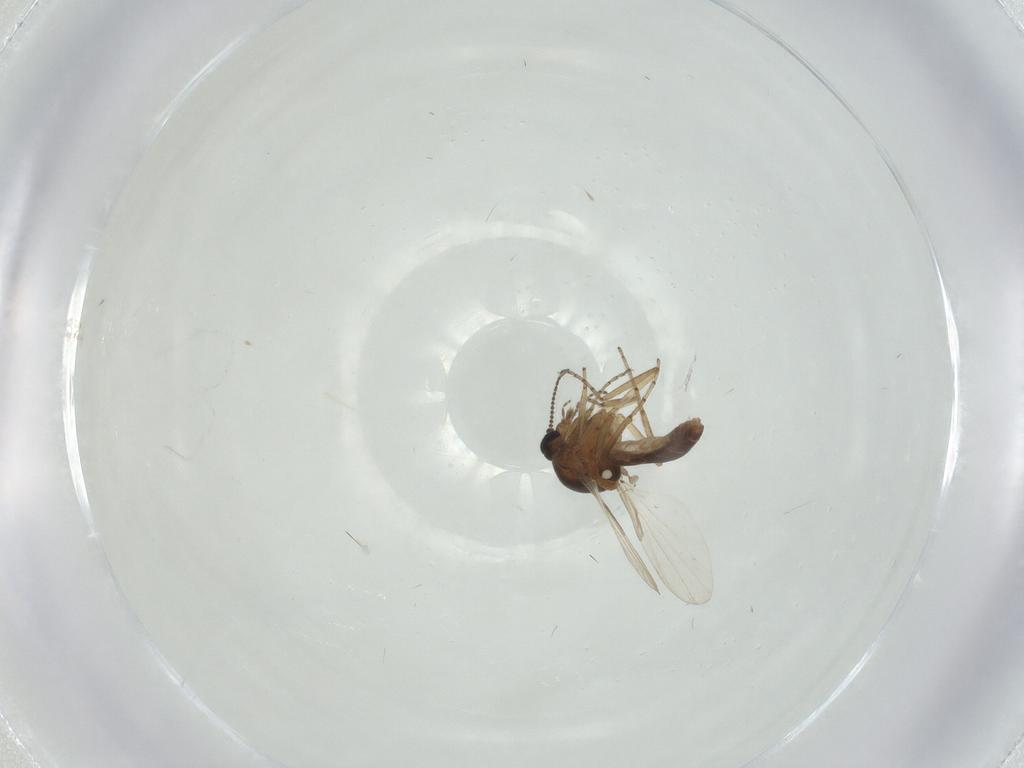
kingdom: Animalia
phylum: Arthropoda
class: Insecta
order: Diptera
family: Ceratopogonidae
